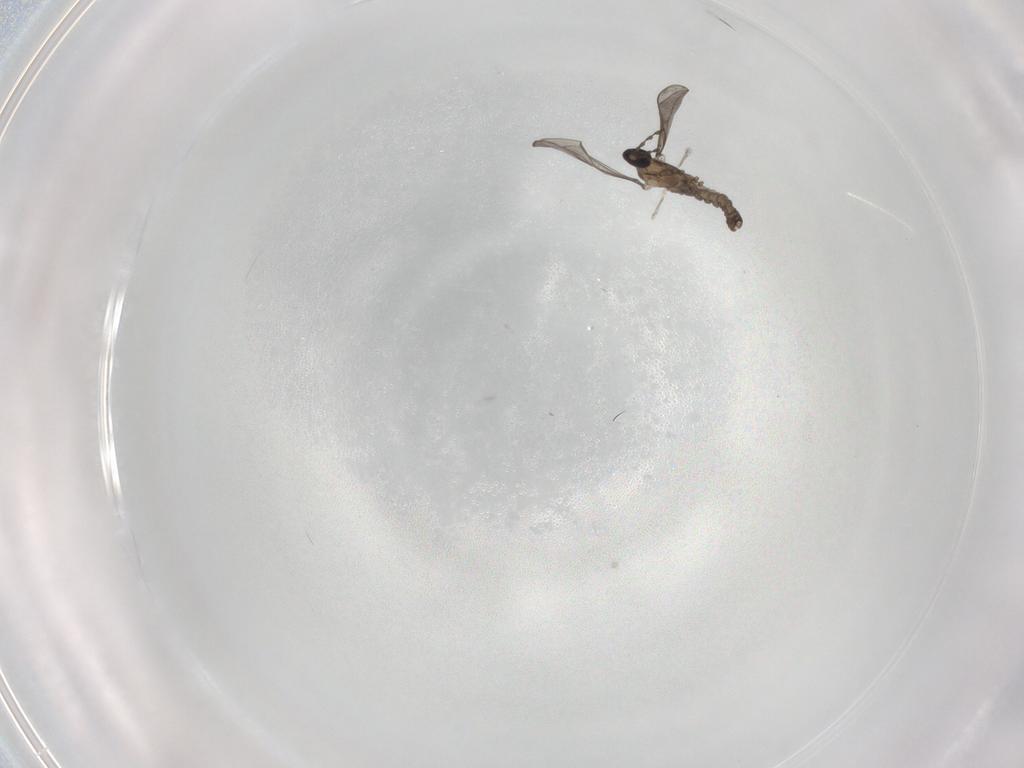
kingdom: Animalia
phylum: Arthropoda
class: Insecta
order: Diptera
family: Cecidomyiidae
